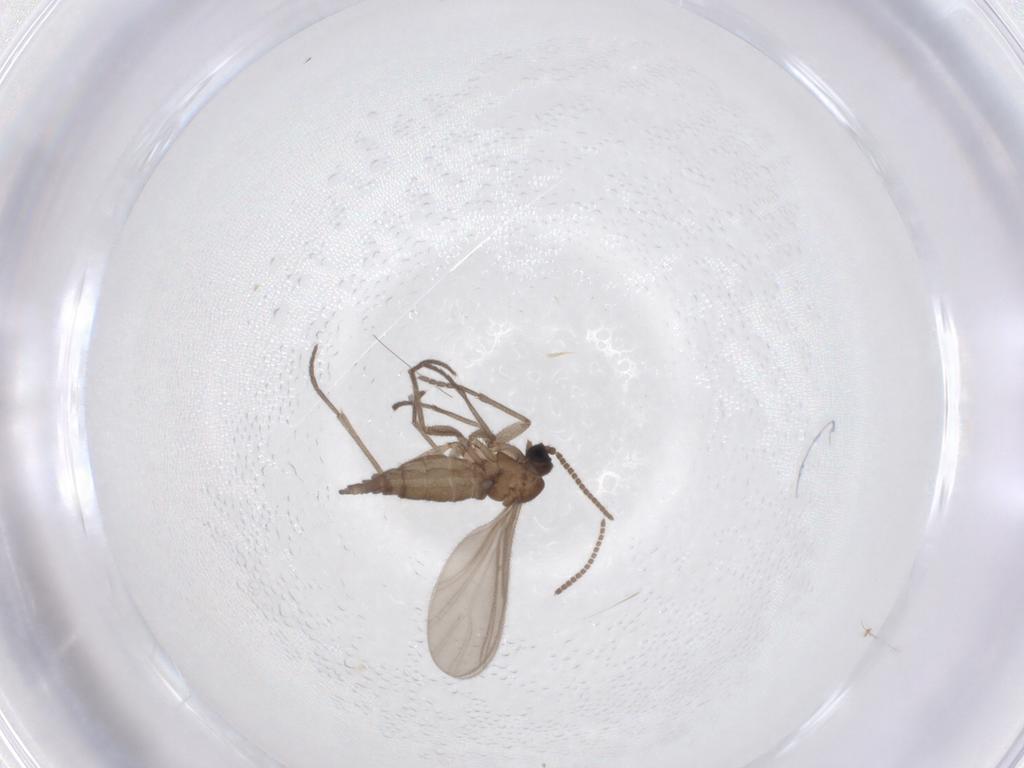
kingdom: Animalia
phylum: Arthropoda
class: Insecta
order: Diptera
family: Sciaridae
